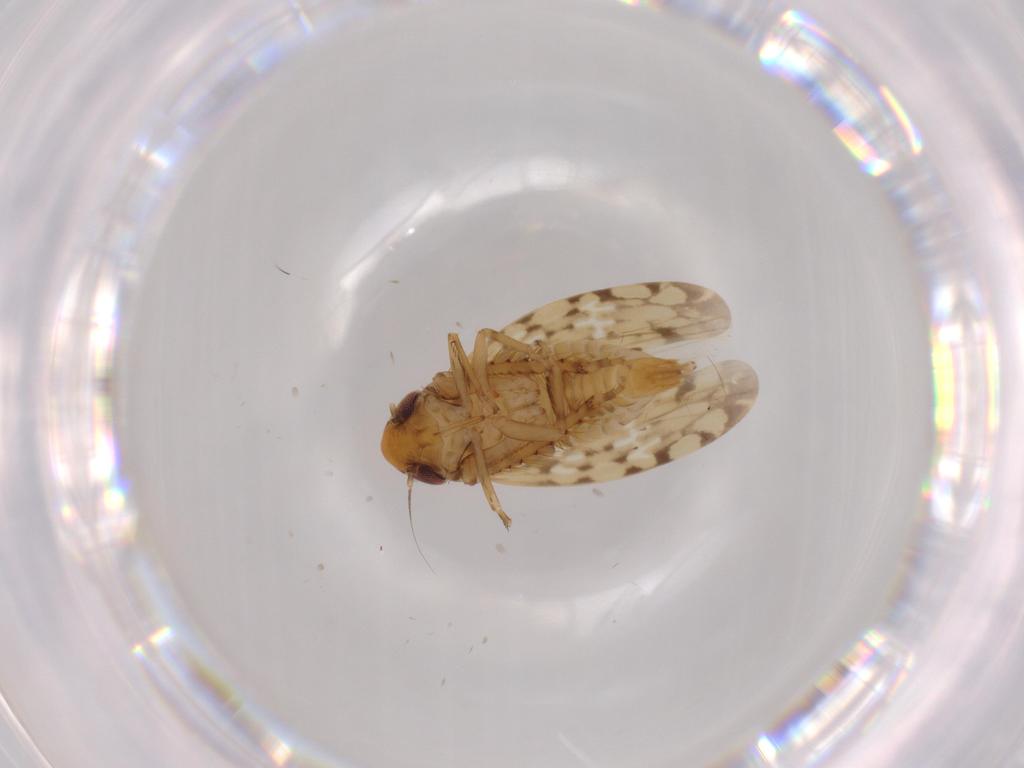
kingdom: Animalia
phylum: Arthropoda
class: Insecta
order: Hemiptera
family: Cicadellidae
